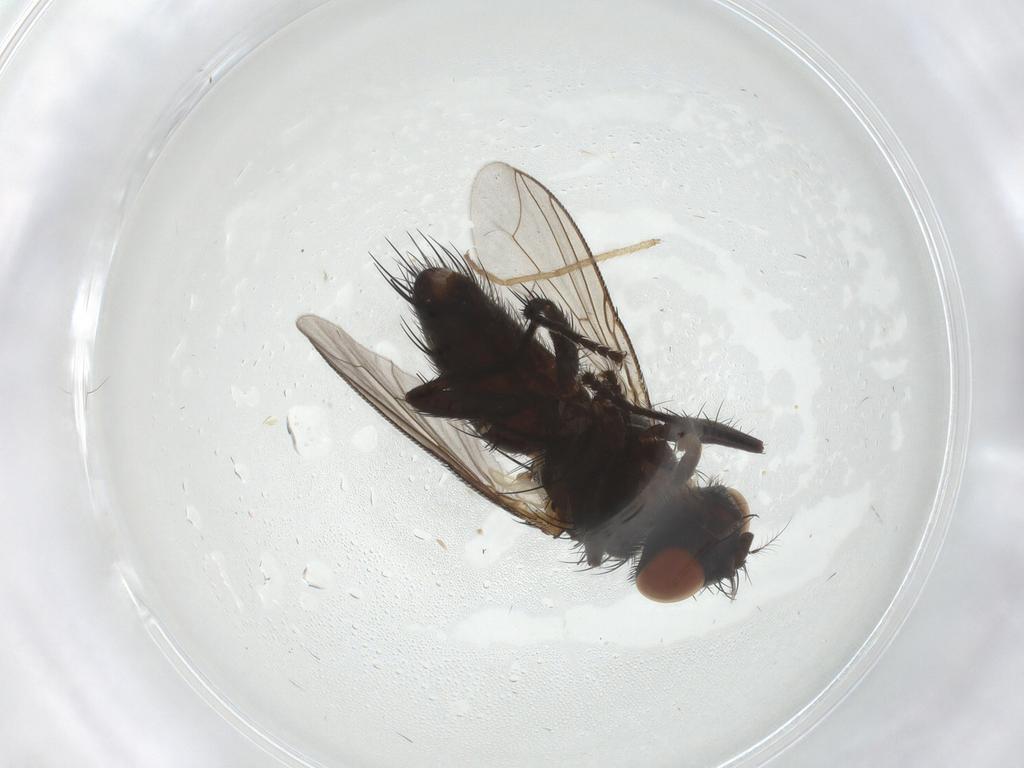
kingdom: Animalia
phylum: Arthropoda
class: Insecta
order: Diptera
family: Sarcophagidae
